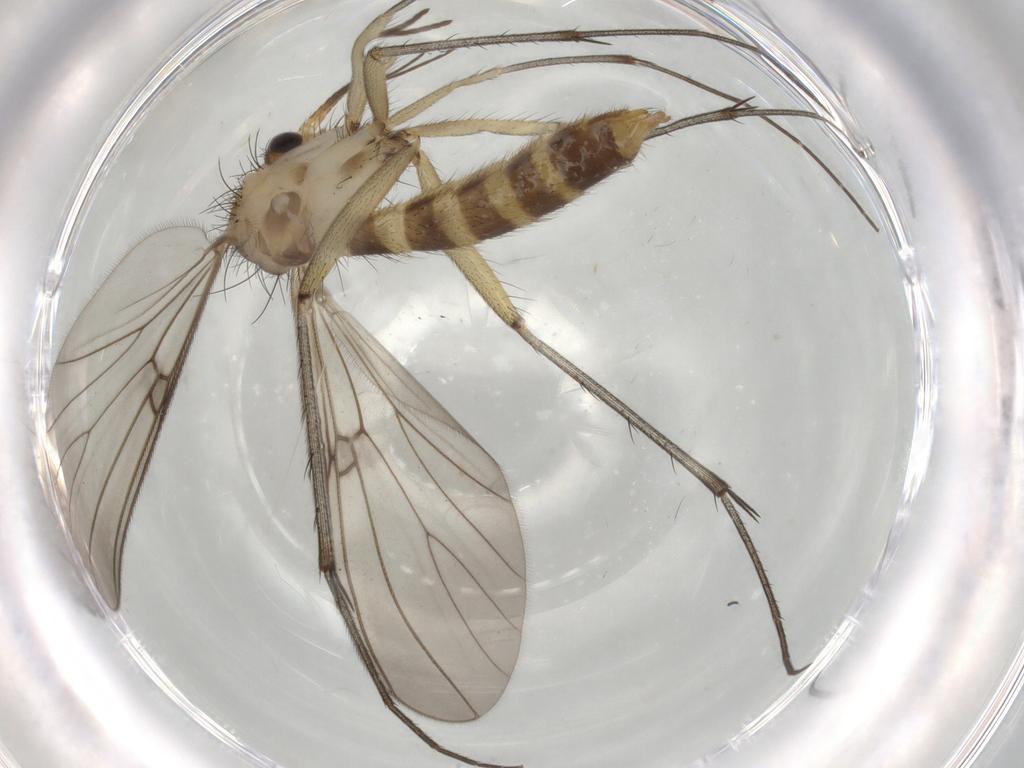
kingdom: Animalia
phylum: Arthropoda
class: Insecta
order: Diptera
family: Mycetophilidae
